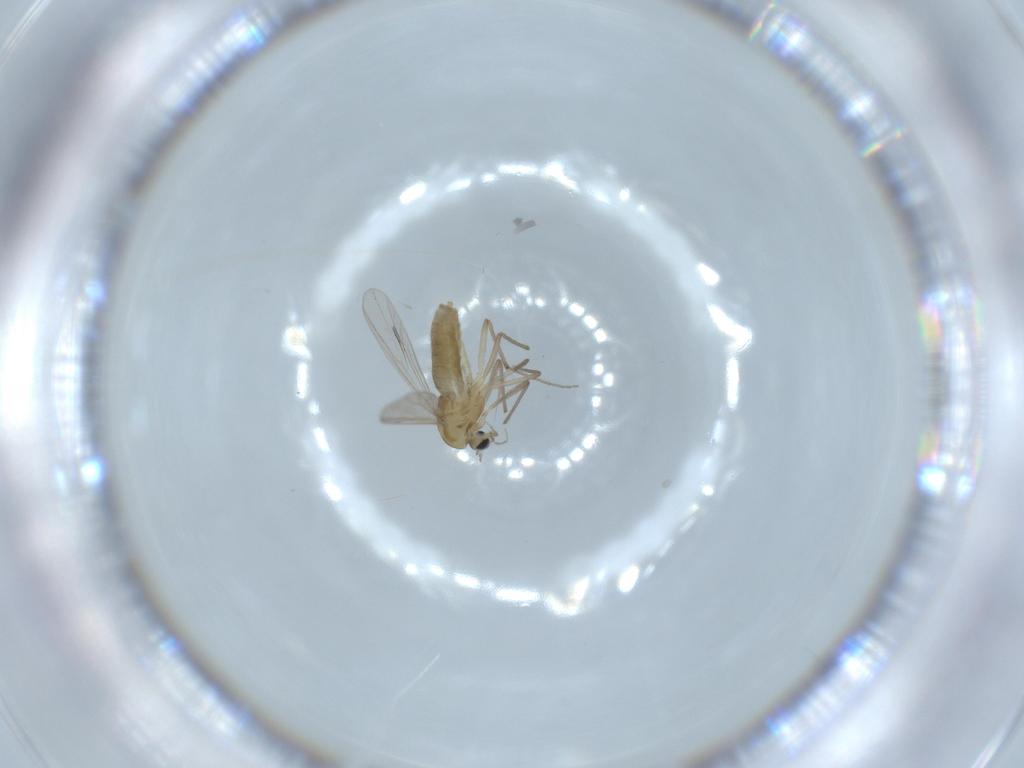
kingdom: Animalia
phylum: Arthropoda
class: Insecta
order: Diptera
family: Chironomidae
